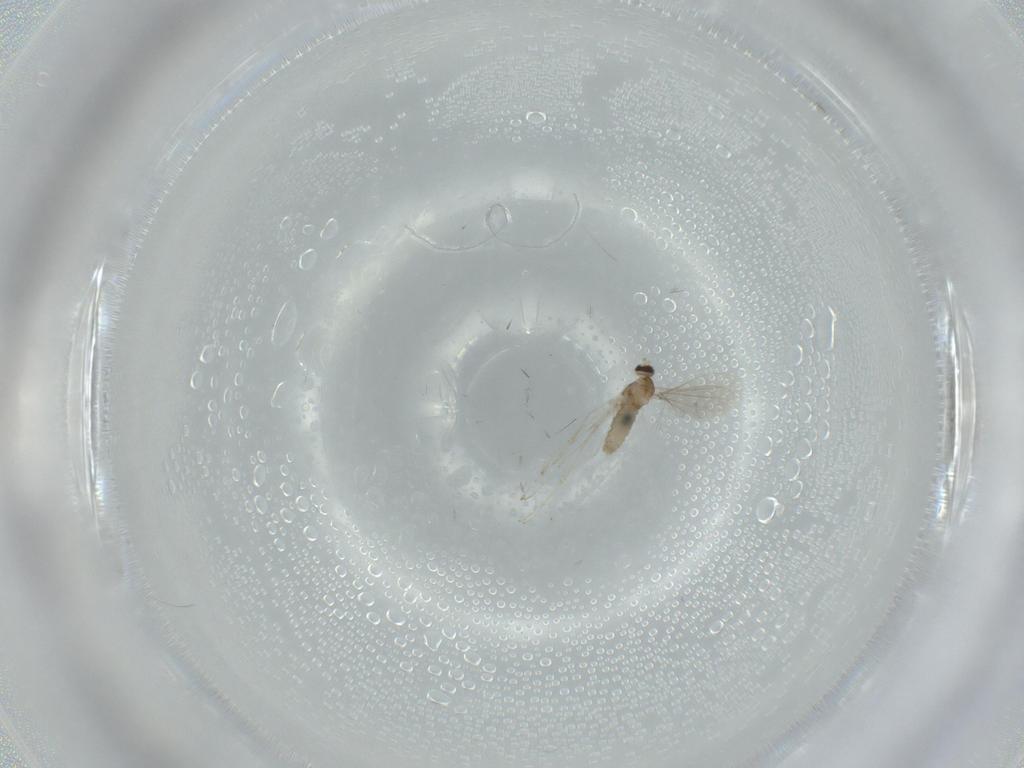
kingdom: Animalia
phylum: Arthropoda
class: Insecta
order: Diptera
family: Cecidomyiidae
